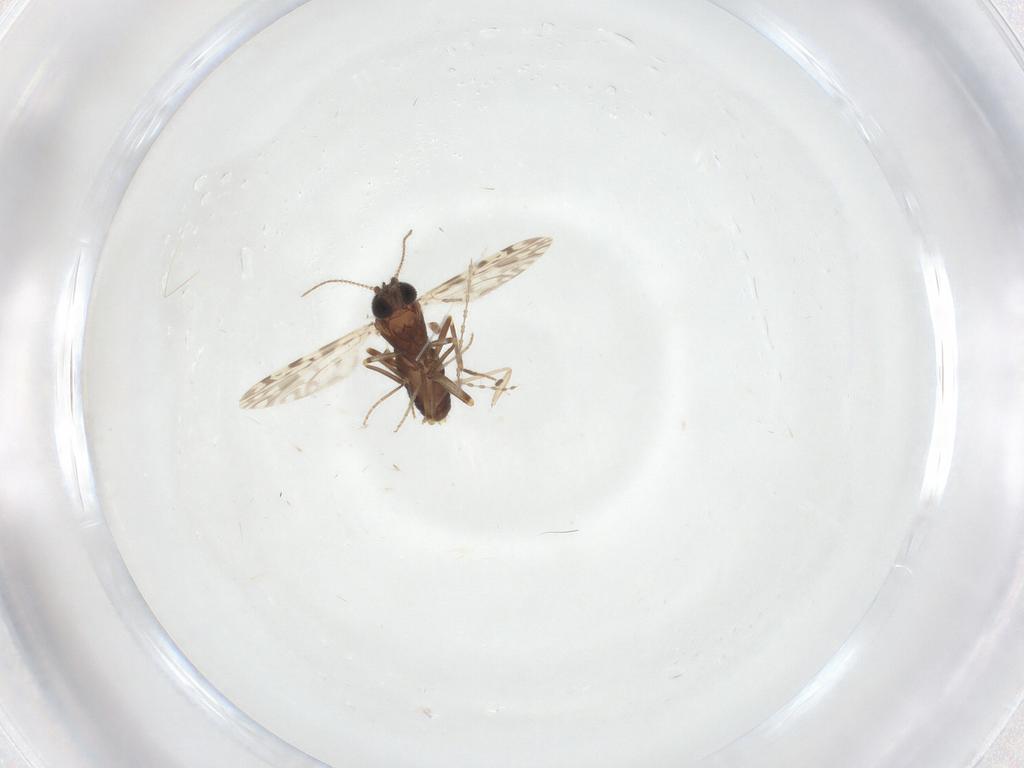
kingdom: Animalia
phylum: Arthropoda
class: Insecta
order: Diptera
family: Ceratopogonidae
